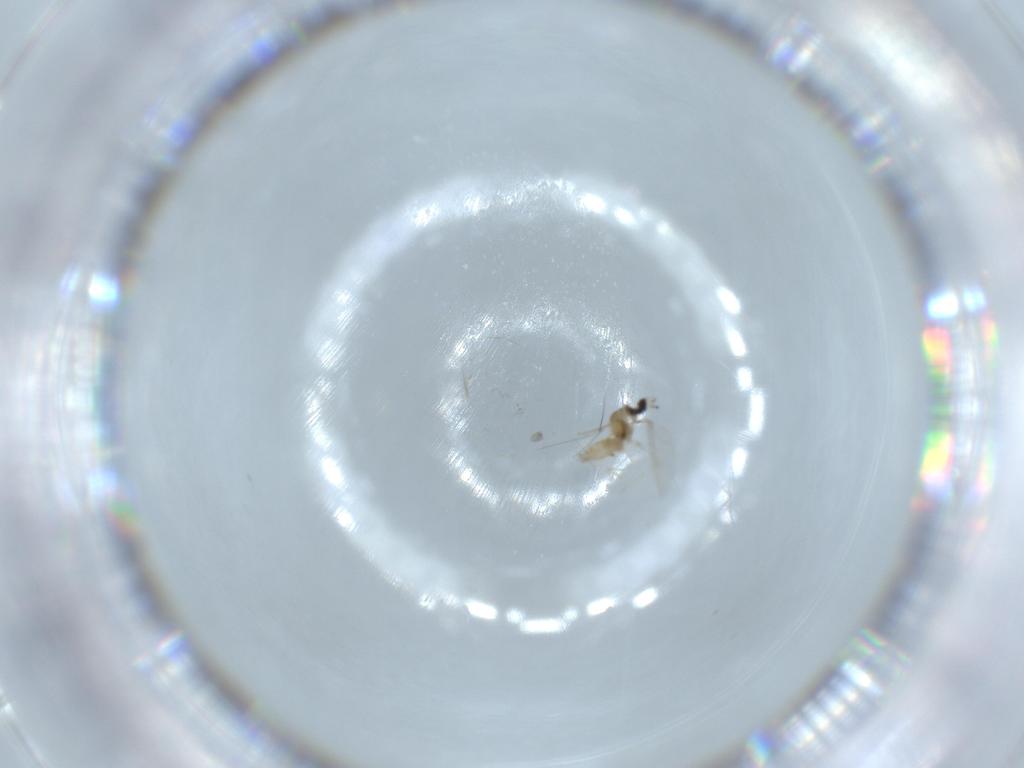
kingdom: Animalia
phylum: Arthropoda
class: Insecta
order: Diptera
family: Cecidomyiidae
